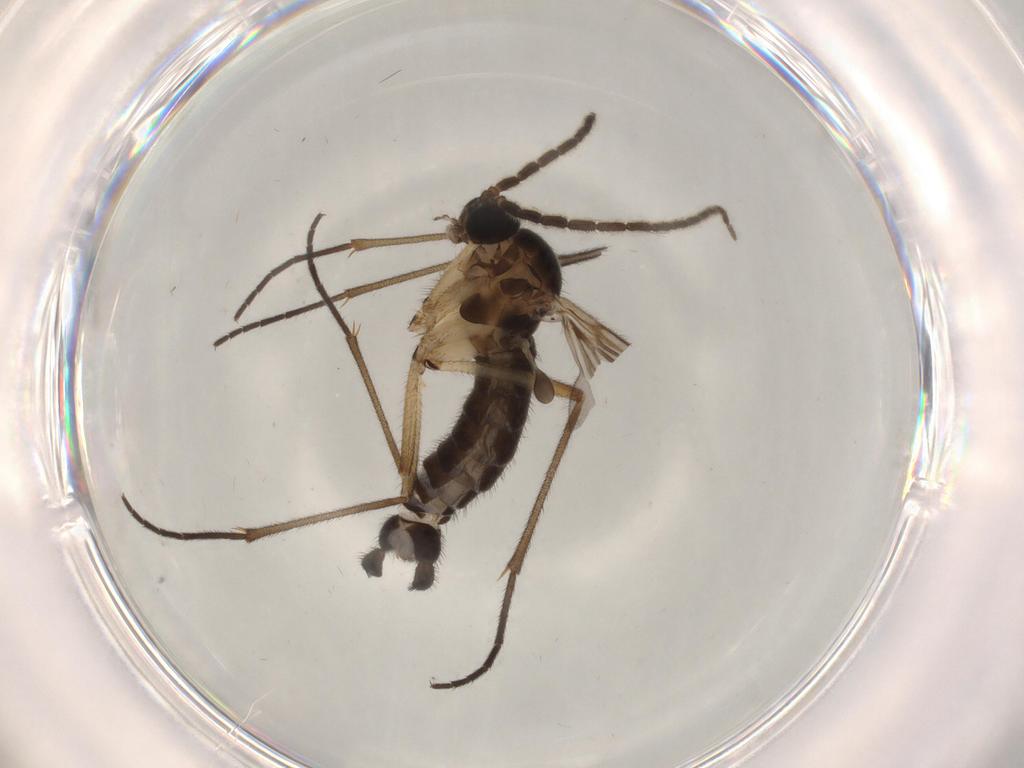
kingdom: Animalia
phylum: Arthropoda
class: Insecta
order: Diptera
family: Sciaridae
